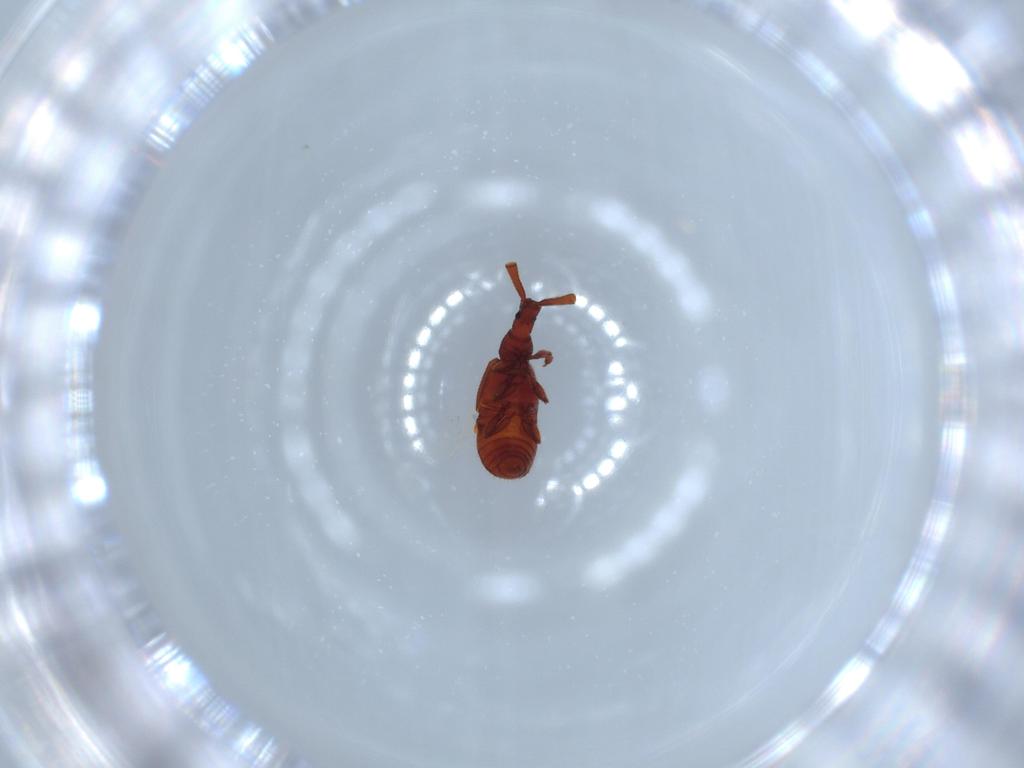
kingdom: Animalia
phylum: Arthropoda
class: Insecta
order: Coleoptera
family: Staphylinidae
